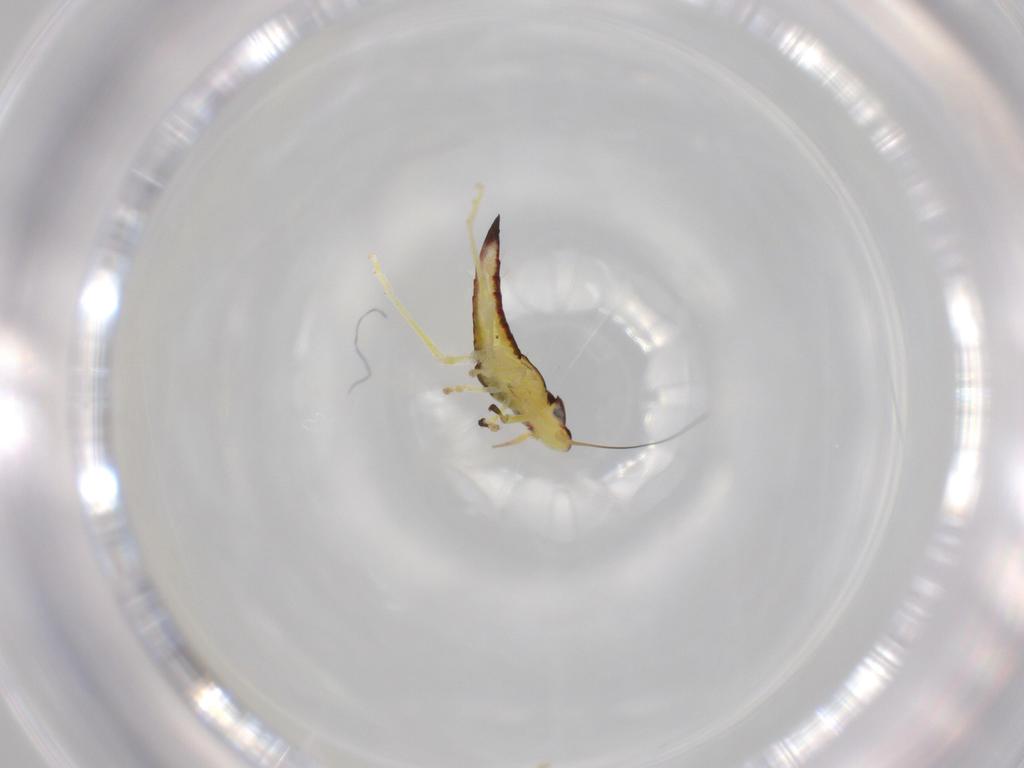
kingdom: Animalia
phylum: Arthropoda
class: Insecta
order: Hemiptera
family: Cicadellidae
